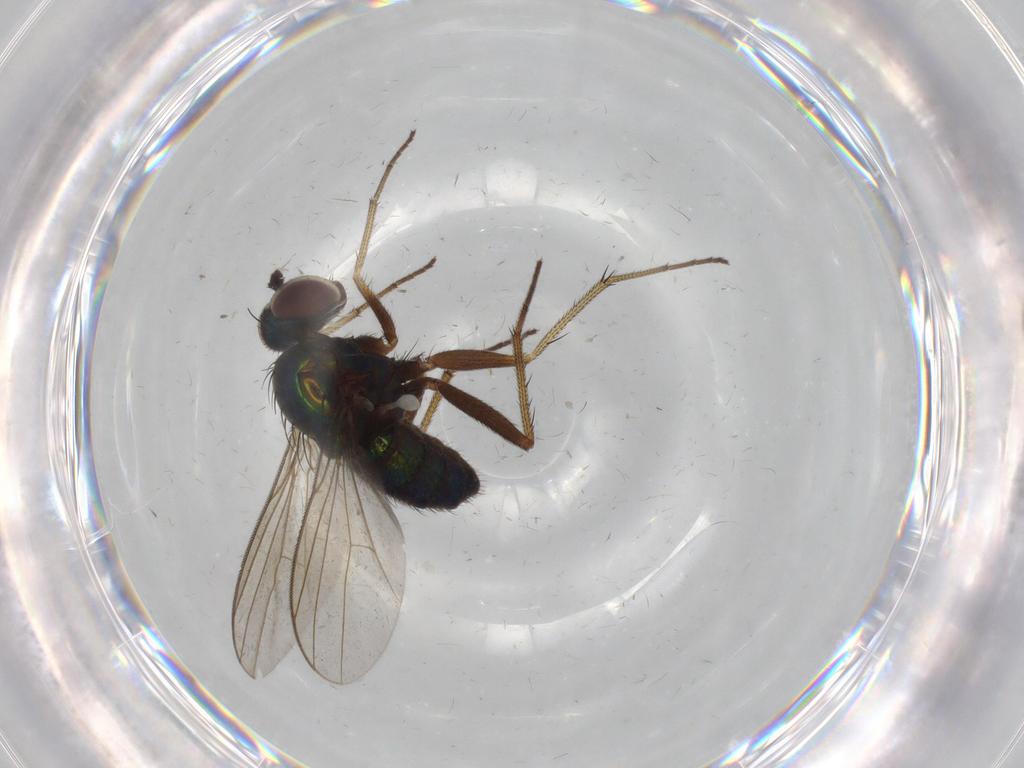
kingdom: Animalia
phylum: Arthropoda
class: Insecta
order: Diptera
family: Dolichopodidae
